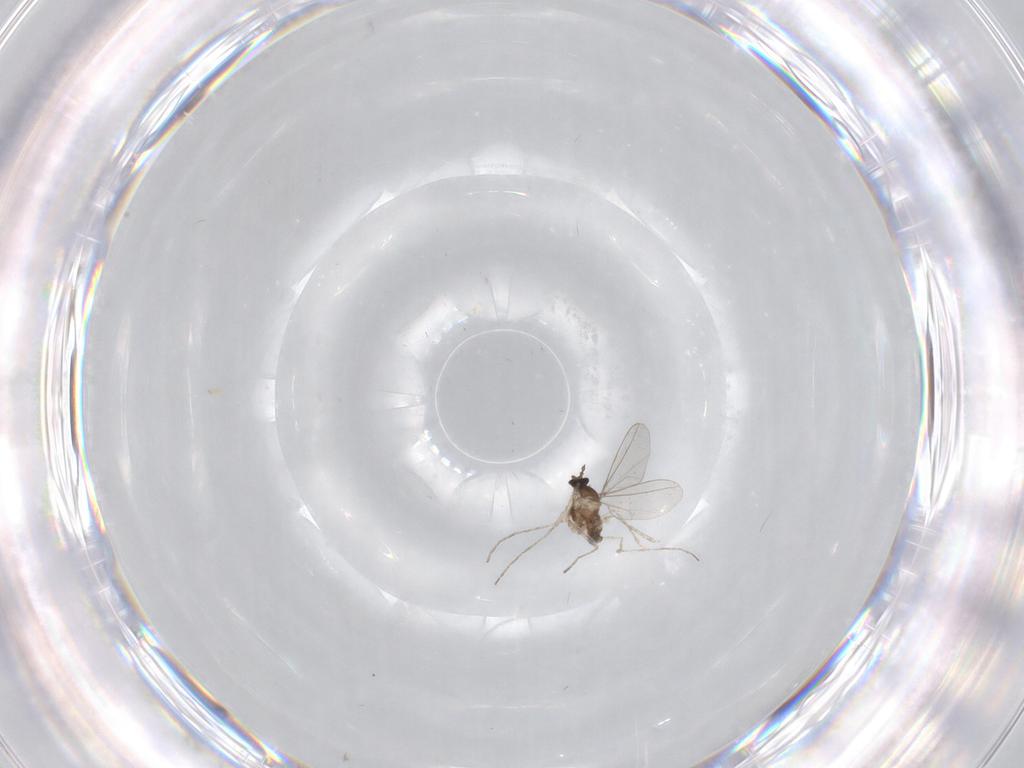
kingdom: Animalia
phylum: Arthropoda
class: Insecta
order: Diptera
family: Cecidomyiidae
